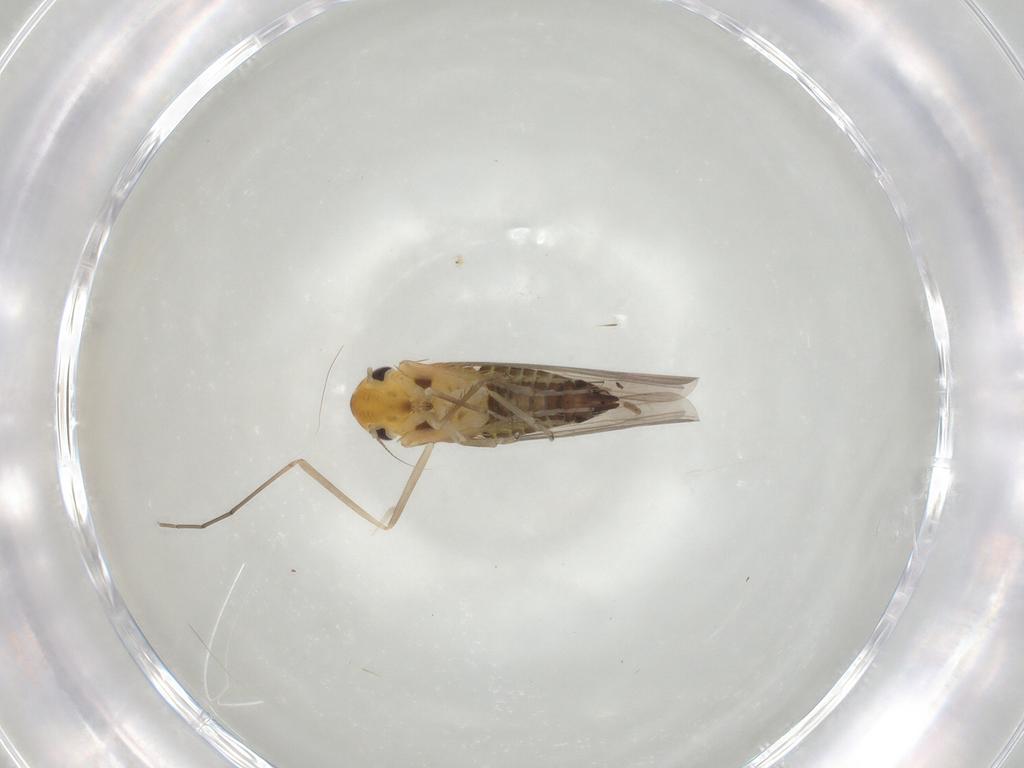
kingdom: Animalia
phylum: Arthropoda
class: Insecta
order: Hemiptera
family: Cicadellidae
